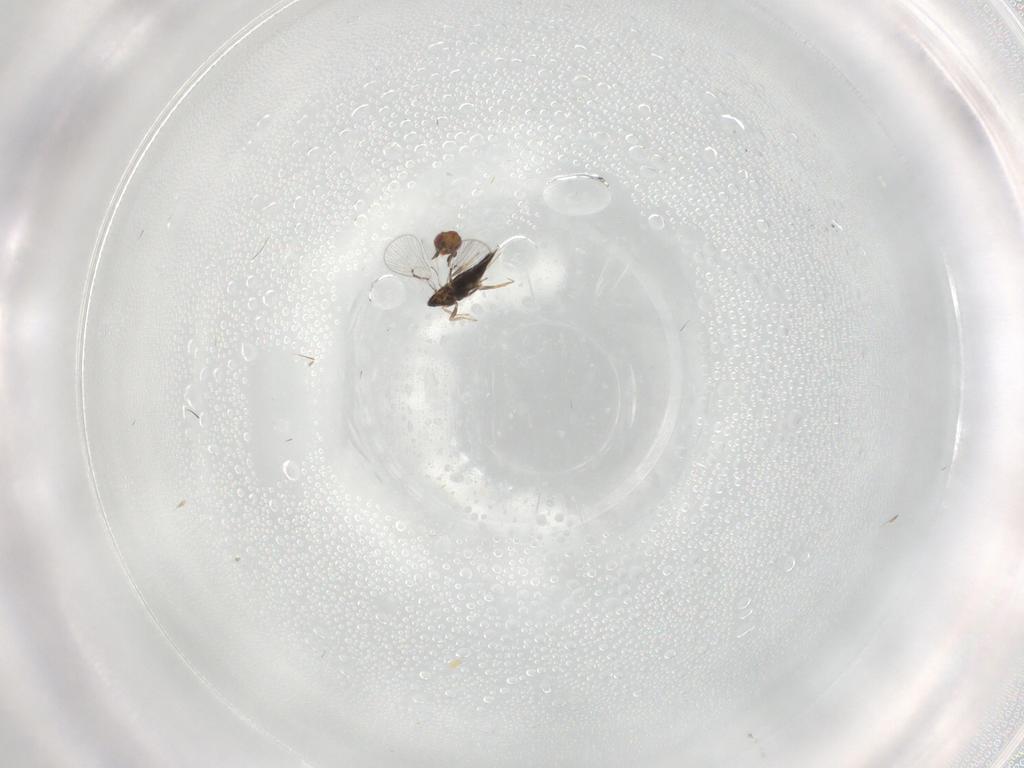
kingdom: Animalia
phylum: Arthropoda
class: Insecta
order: Hymenoptera
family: Trichogrammatidae
